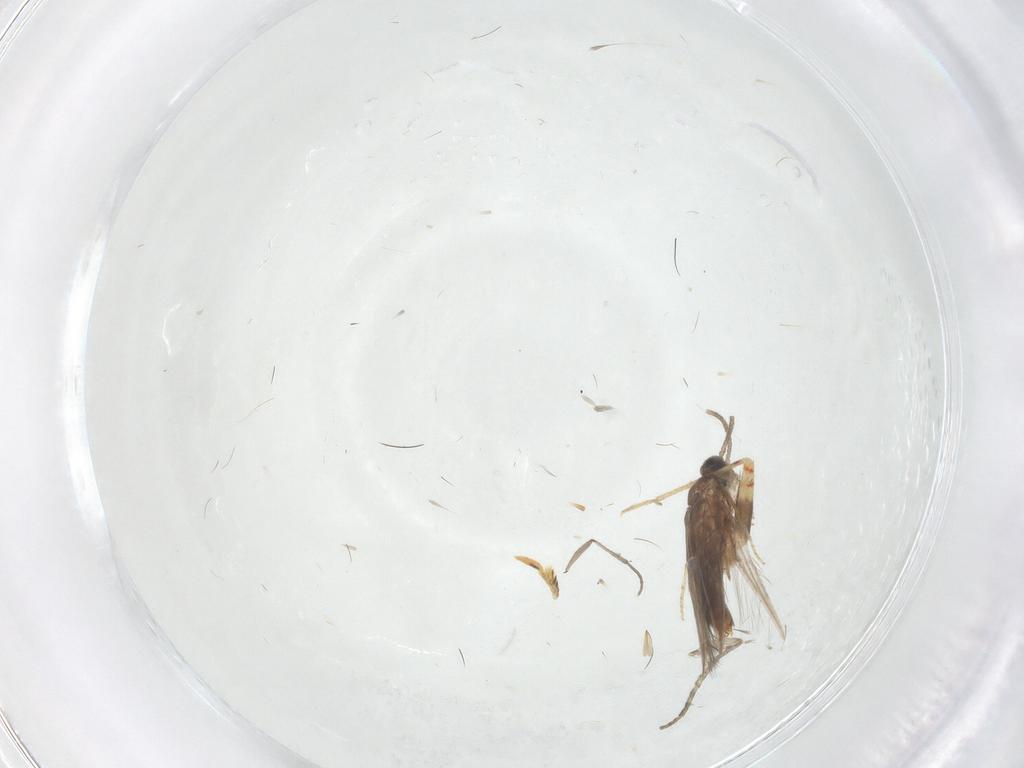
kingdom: Animalia
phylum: Arthropoda
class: Insecta
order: Trichoptera
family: Hydroptilidae
